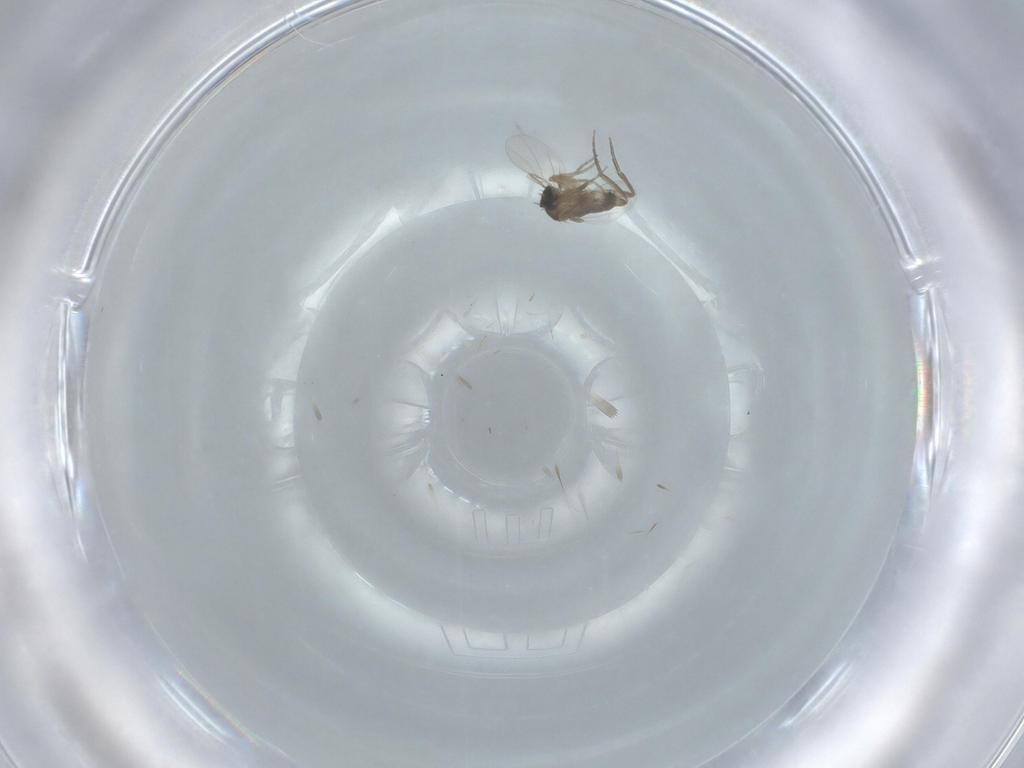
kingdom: Animalia
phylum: Arthropoda
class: Insecta
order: Diptera
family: Phoridae
